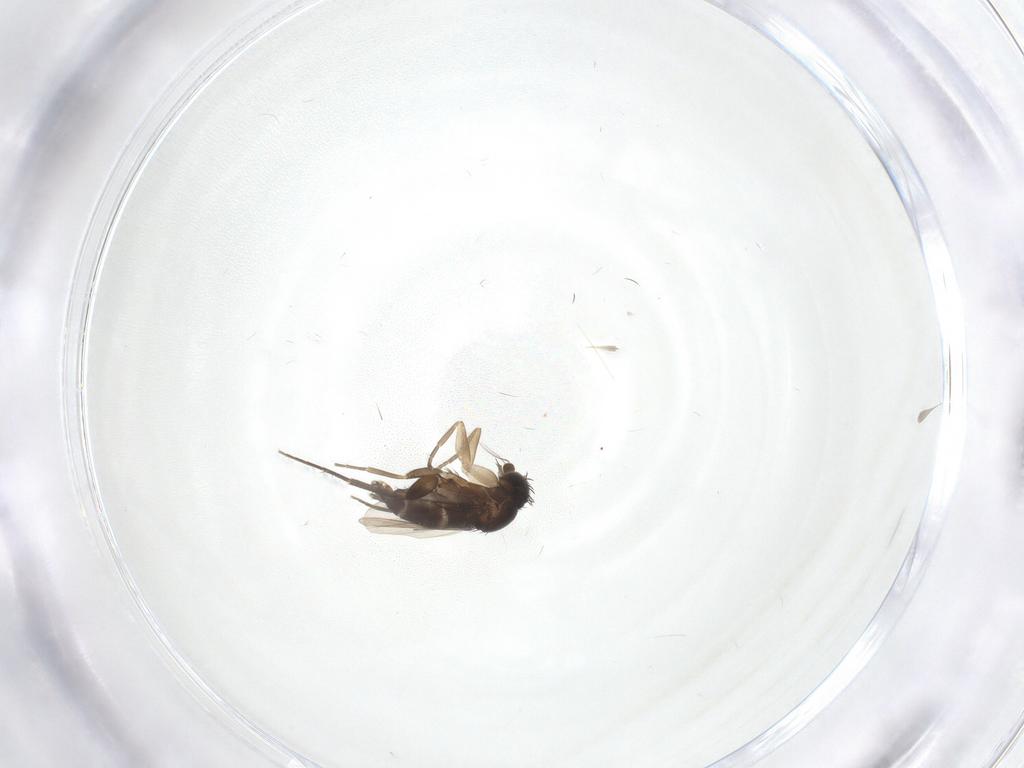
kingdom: Animalia
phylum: Arthropoda
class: Insecta
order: Diptera
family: Phoridae
